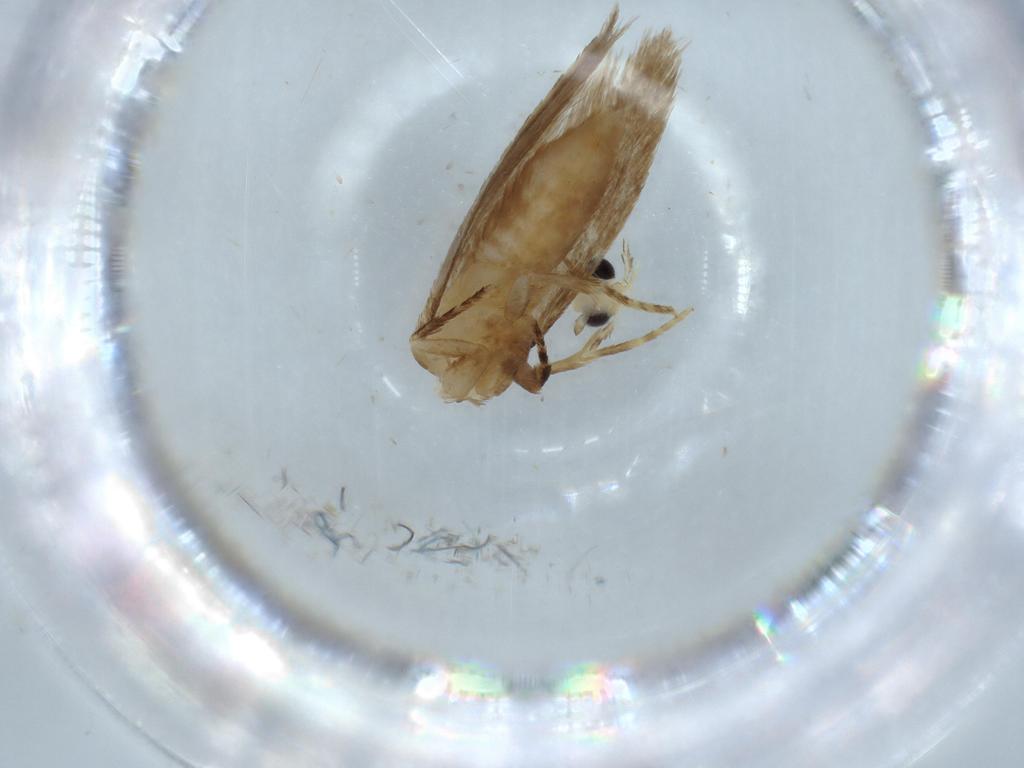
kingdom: Animalia
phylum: Arthropoda
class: Insecta
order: Lepidoptera
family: Tineidae
